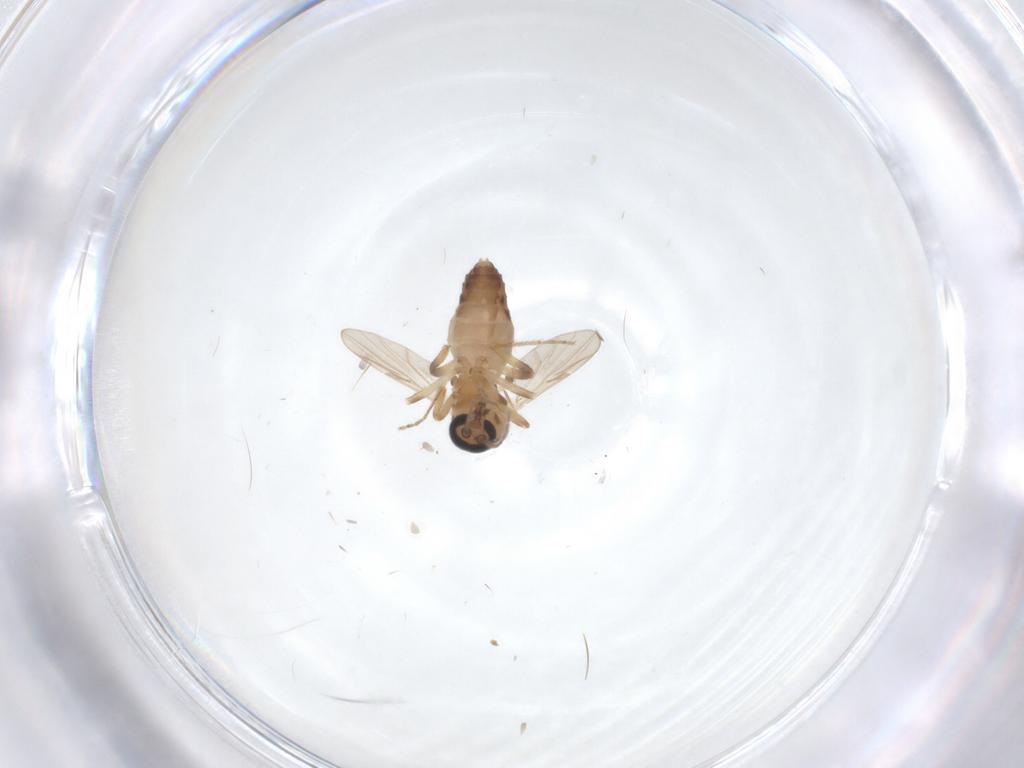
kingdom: Animalia
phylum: Arthropoda
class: Insecta
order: Diptera
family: Ceratopogonidae
